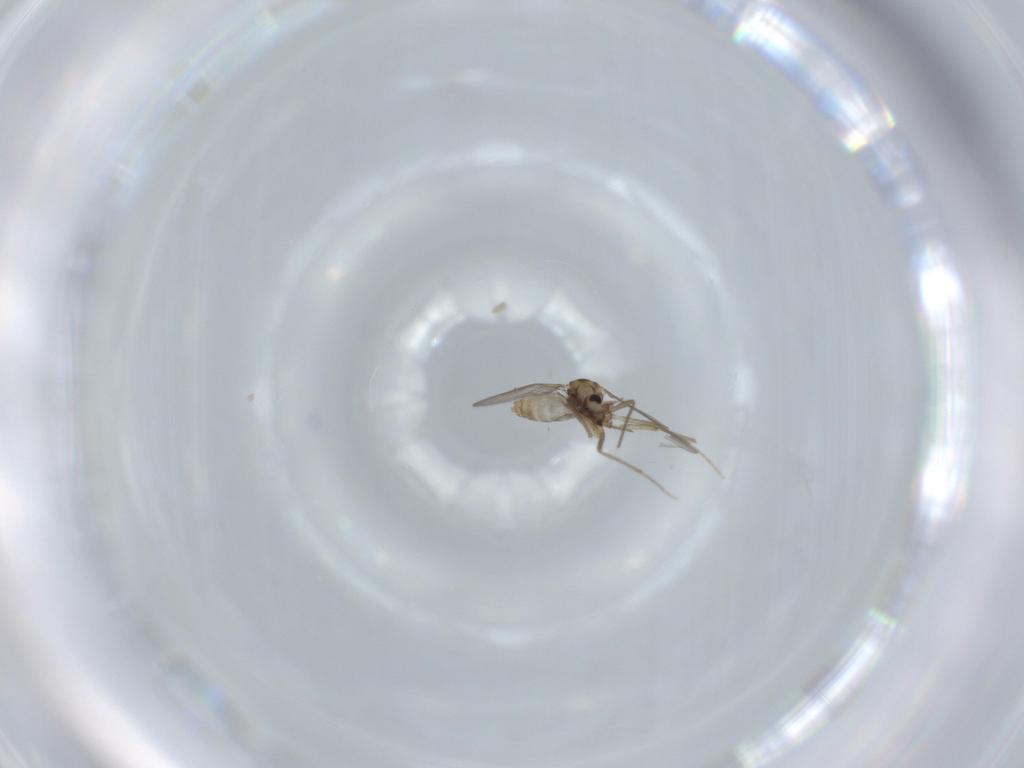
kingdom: Animalia
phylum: Arthropoda
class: Insecta
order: Diptera
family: Chironomidae
